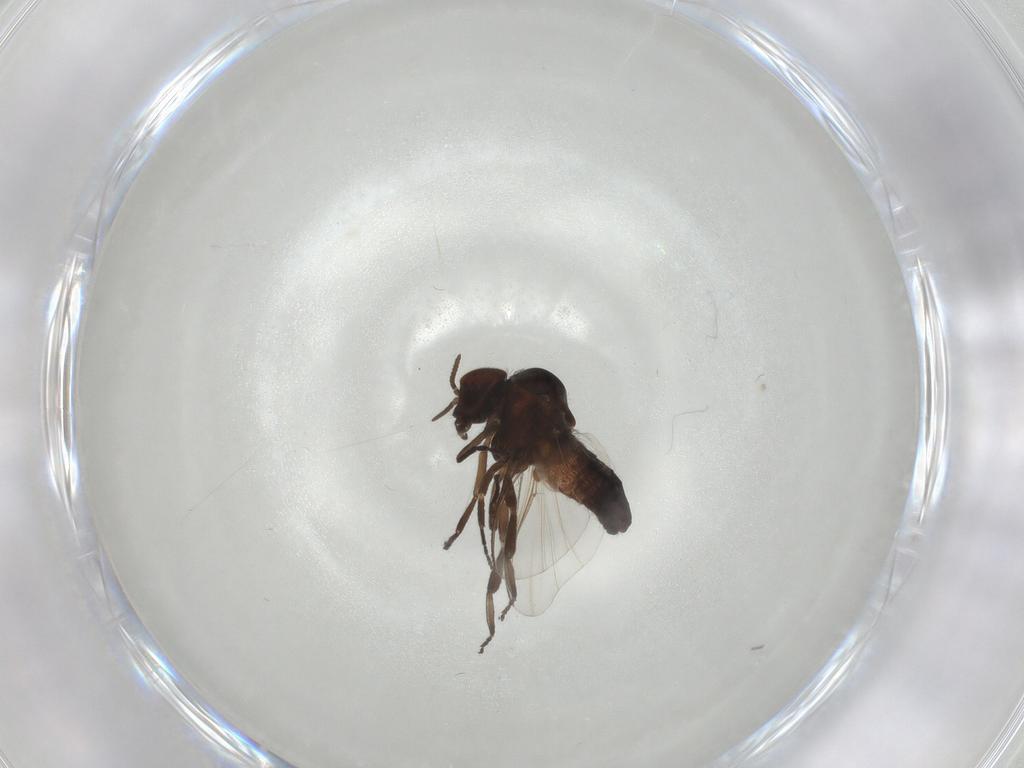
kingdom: Animalia
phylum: Arthropoda
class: Insecta
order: Diptera
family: Simuliidae
